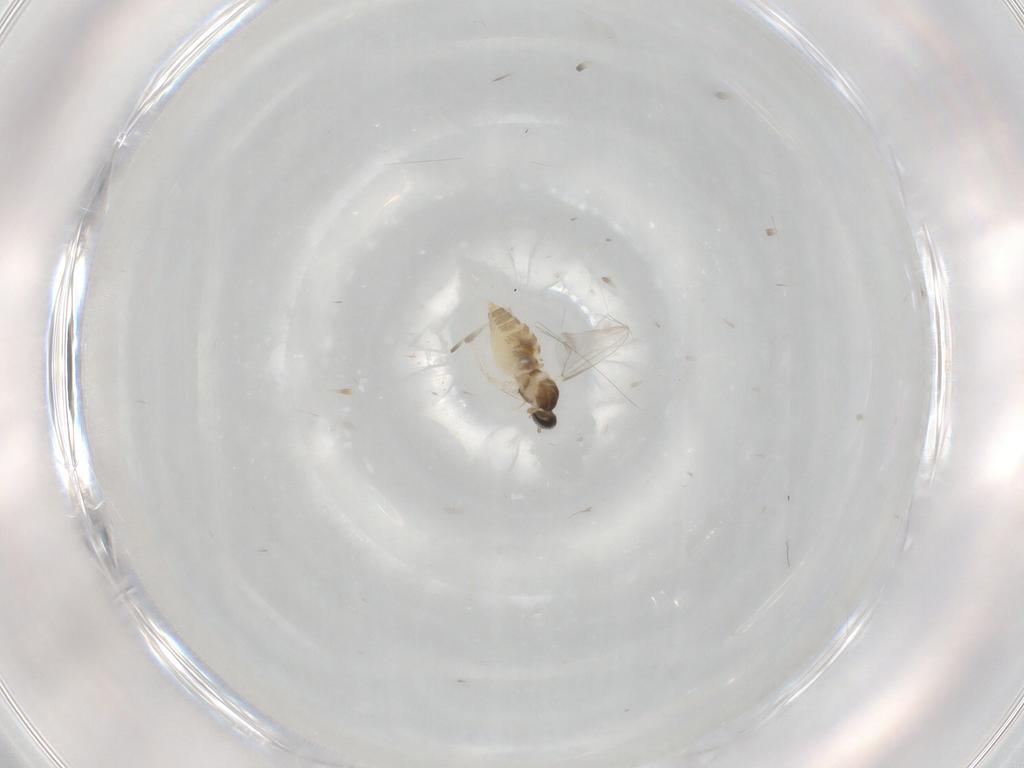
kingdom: Animalia
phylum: Arthropoda
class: Insecta
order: Diptera
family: Cecidomyiidae
